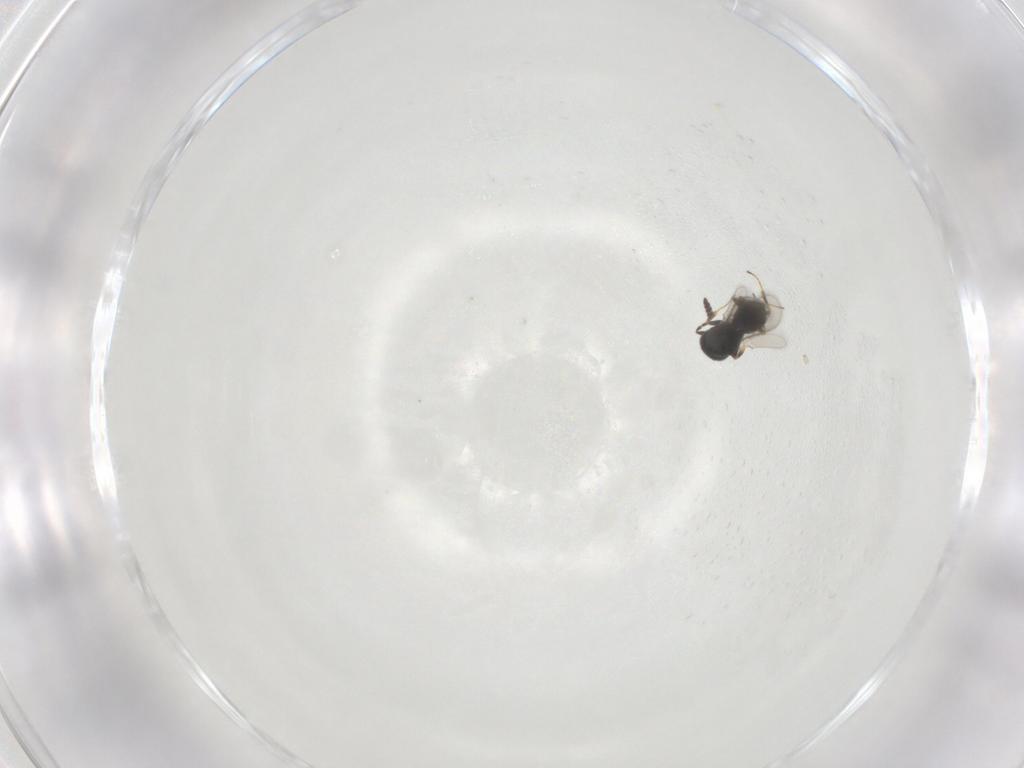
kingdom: Animalia
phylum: Arthropoda
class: Insecta
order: Hymenoptera
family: Scelionidae
